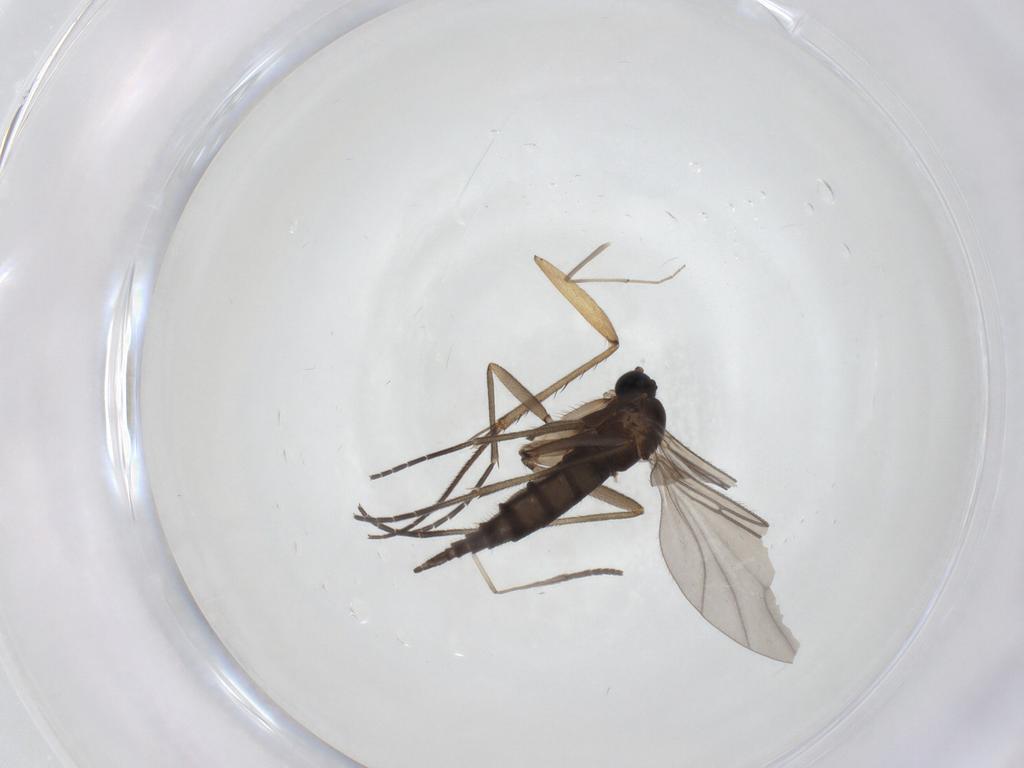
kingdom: Animalia
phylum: Arthropoda
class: Insecta
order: Diptera
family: Sciaridae
